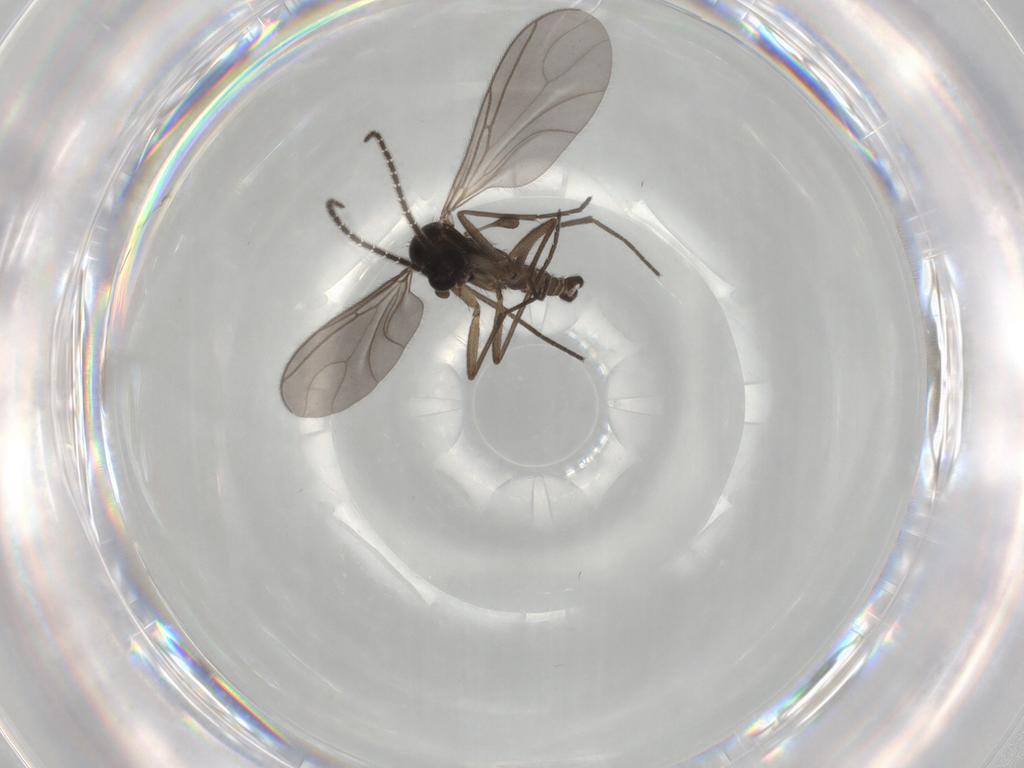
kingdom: Animalia
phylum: Arthropoda
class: Insecta
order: Diptera
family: Sciaridae
